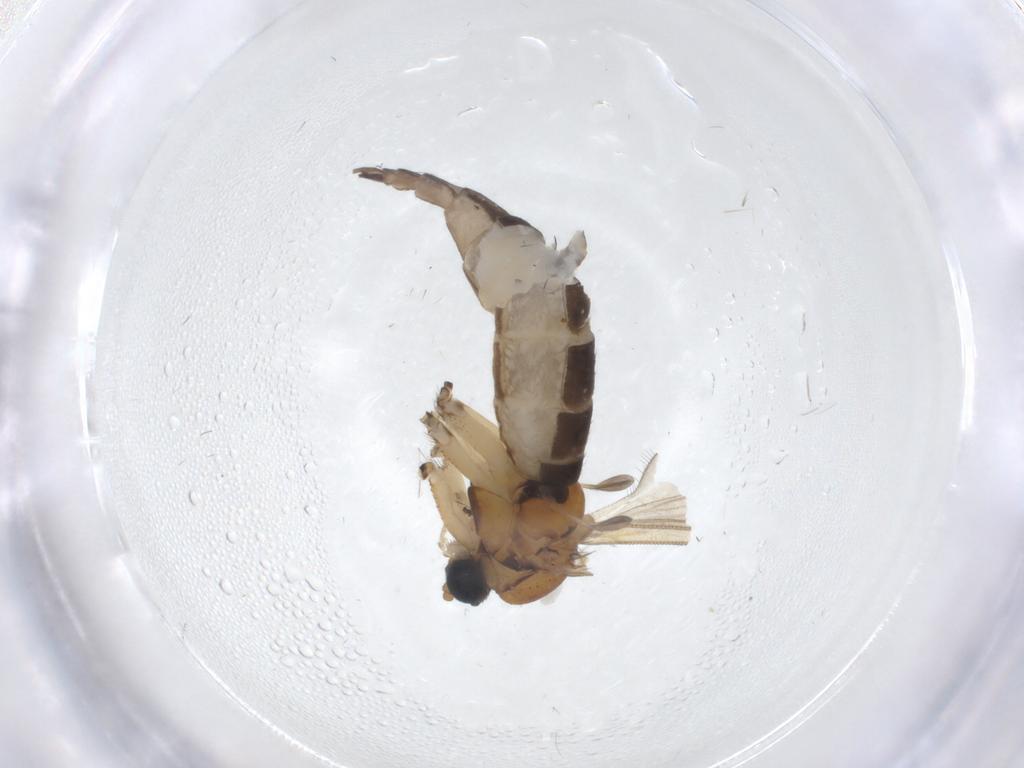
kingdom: Animalia
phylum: Arthropoda
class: Insecta
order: Diptera
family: Sciaridae
